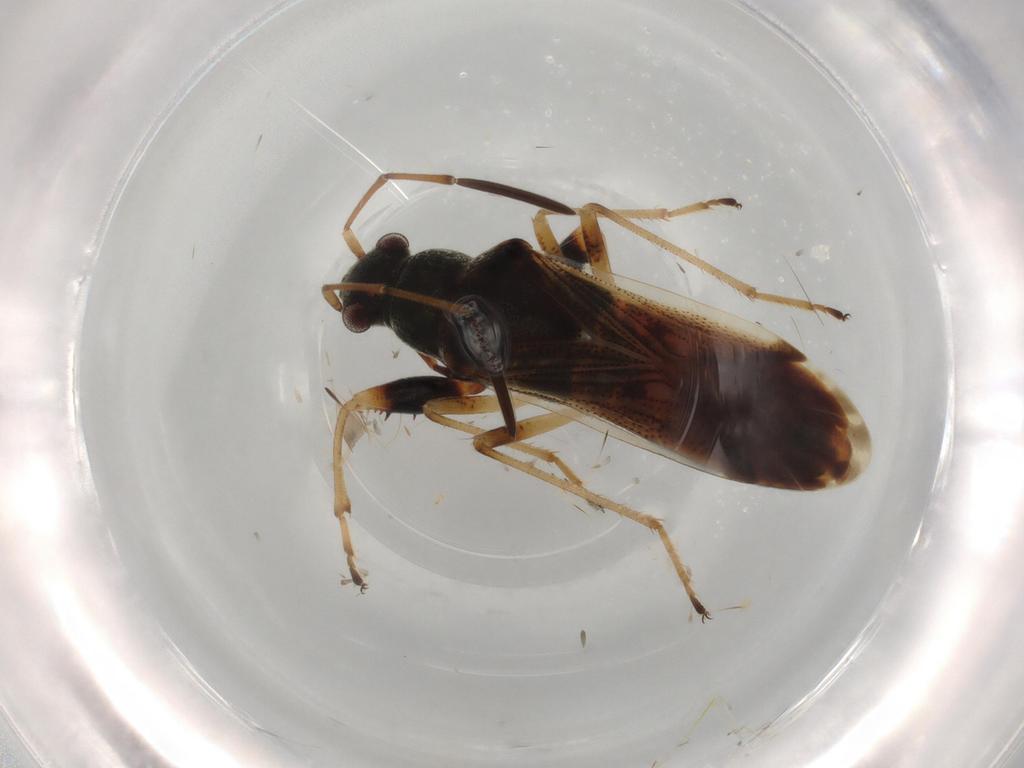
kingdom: Animalia
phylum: Arthropoda
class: Insecta
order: Hemiptera
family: Rhyparochromidae
